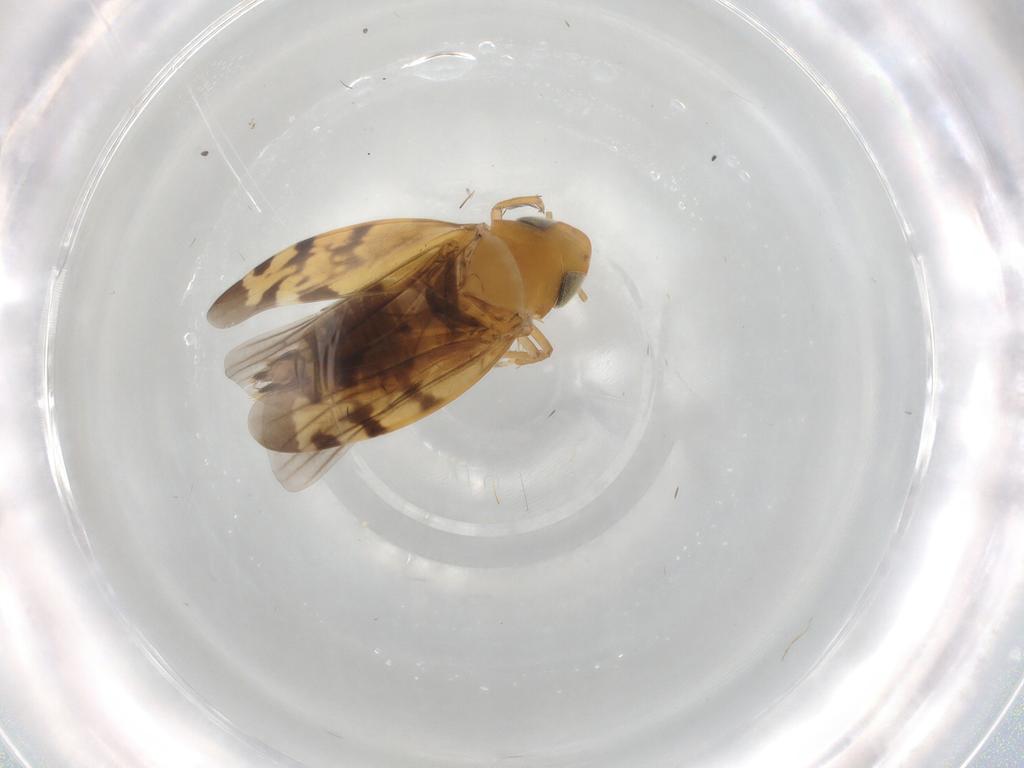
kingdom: Animalia
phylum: Arthropoda
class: Insecta
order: Hemiptera
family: Cicadellidae
